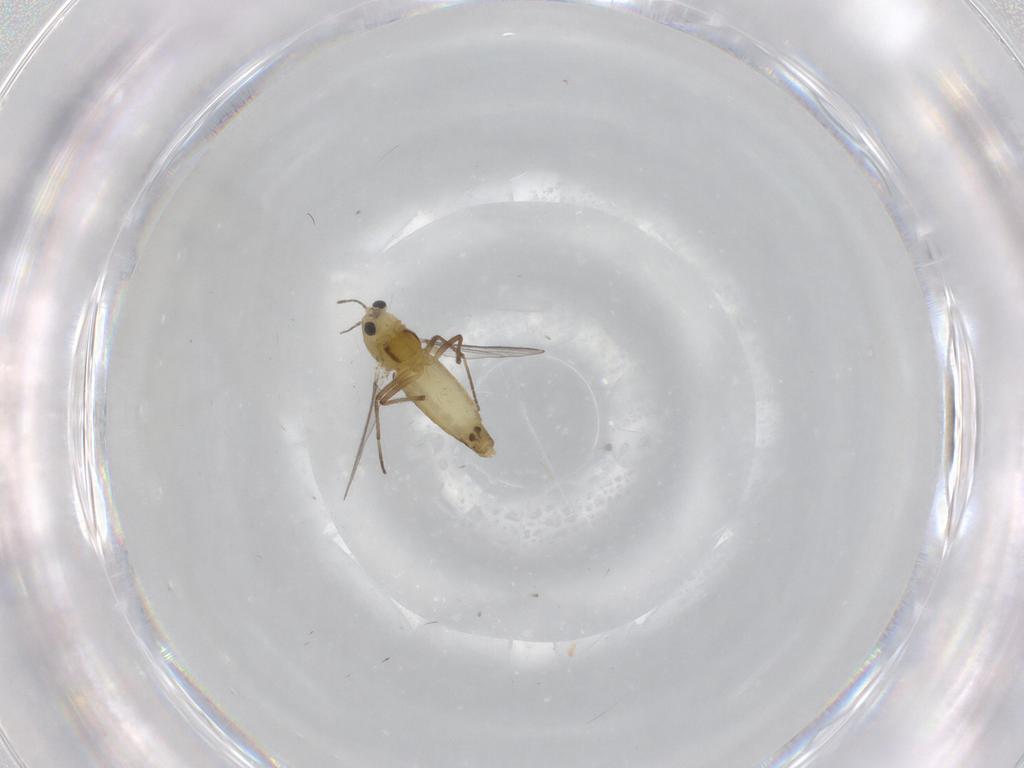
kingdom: Animalia
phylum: Arthropoda
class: Insecta
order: Diptera
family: Chironomidae
